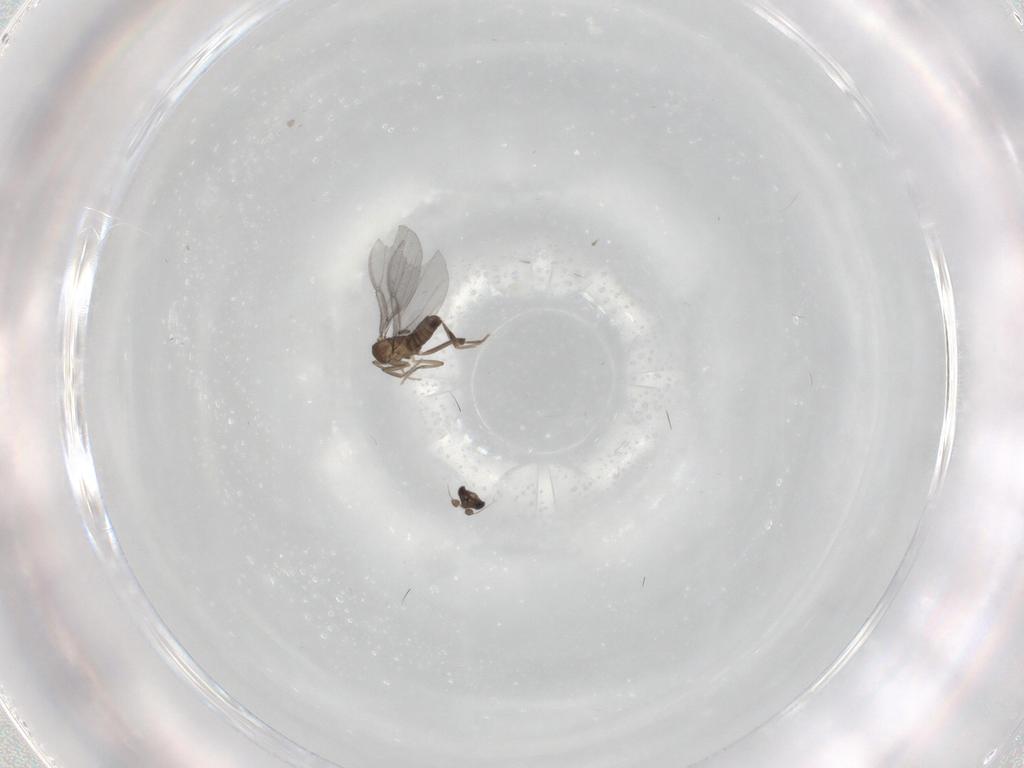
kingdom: Animalia
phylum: Arthropoda
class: Insecta
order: Diptera
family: Phoridae
